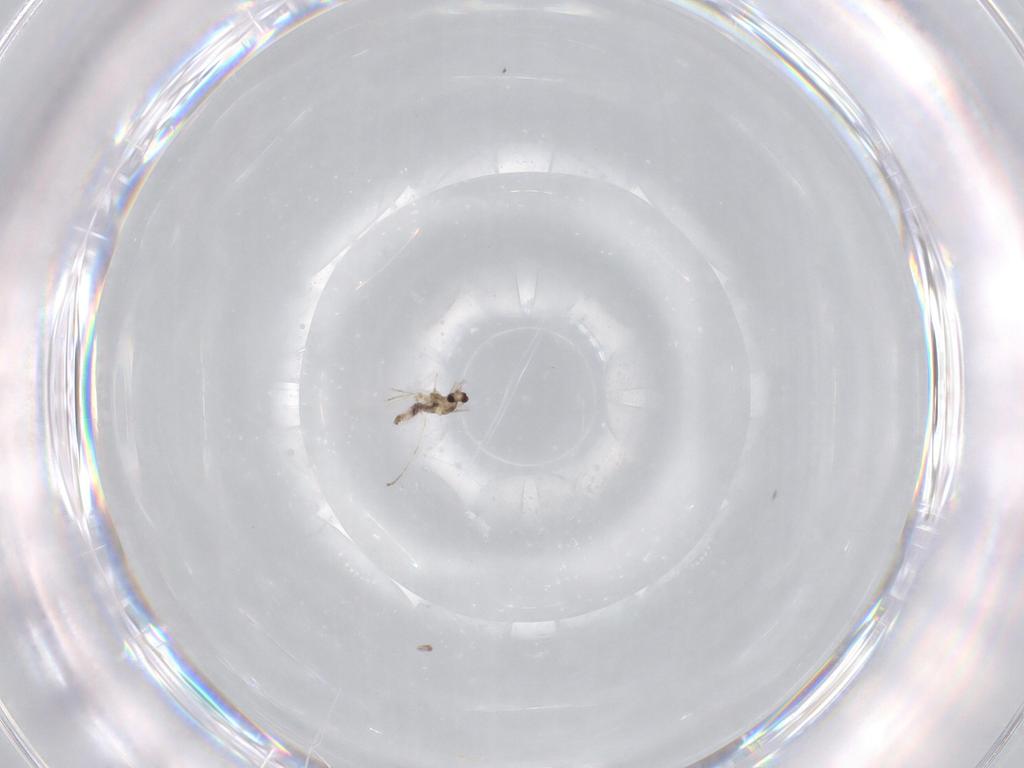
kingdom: Animalia
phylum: Arthropoda
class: Insecta
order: Diptera
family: Cecidomyiidae
